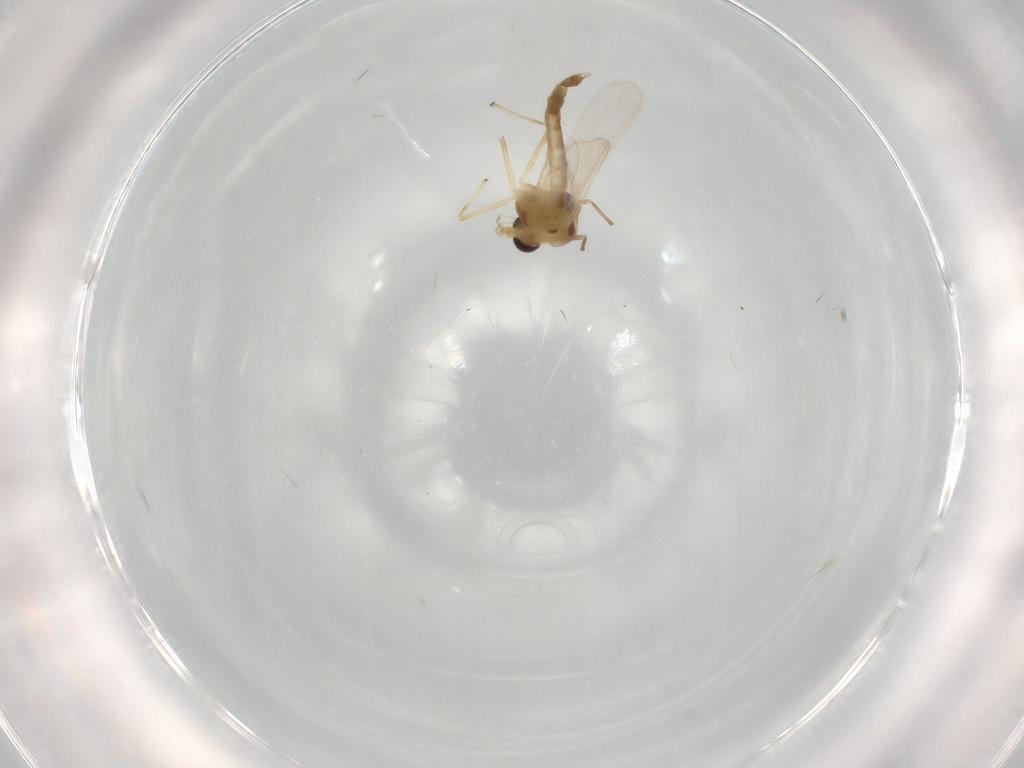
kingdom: Animalia
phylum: Arthropoda
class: Insecta
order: Diptera
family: Chironomidae
